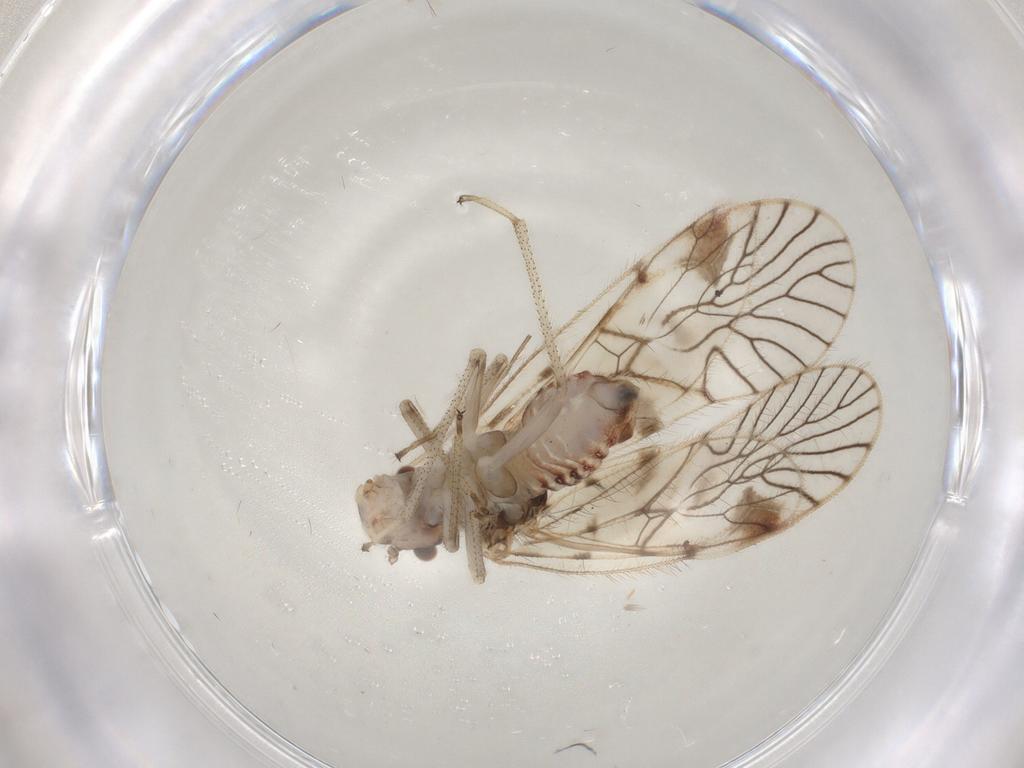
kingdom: Animalia
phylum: Arthropoda
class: Insecta
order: Psocodea
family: Amphipsocidae
